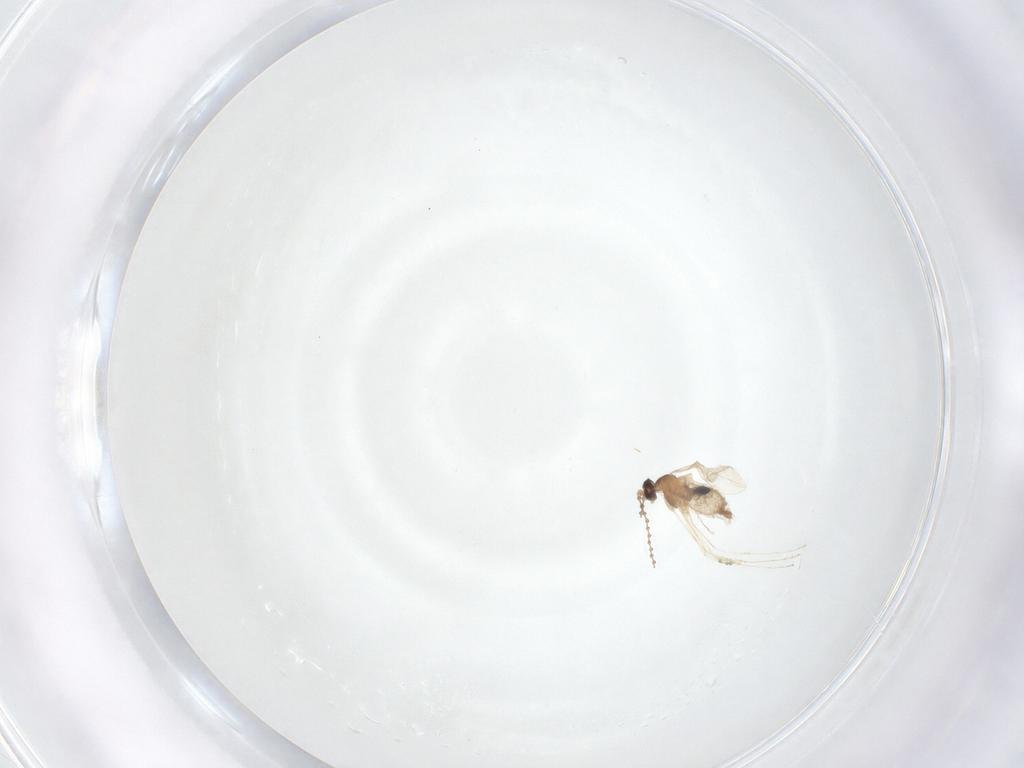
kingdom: Animalia
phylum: Arthropoda
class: Insecta
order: Diptera
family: Cecidomyiidae
